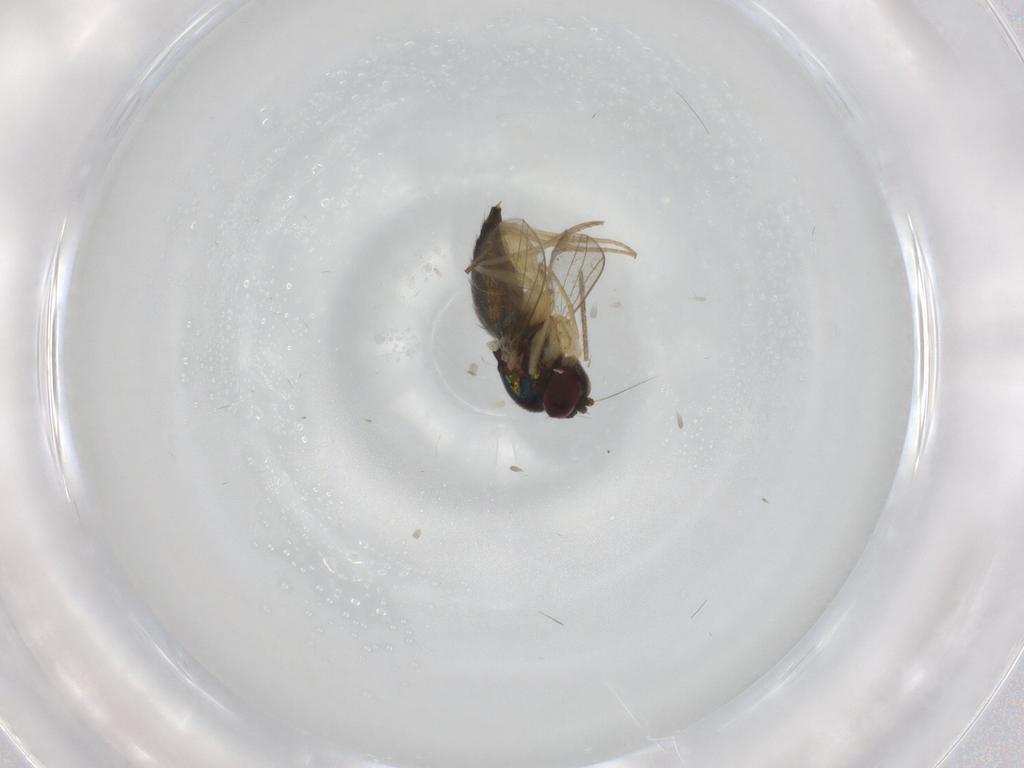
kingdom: Animalia
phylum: Arthropoda
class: Insecta
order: Diptera
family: Dolichopodidae
